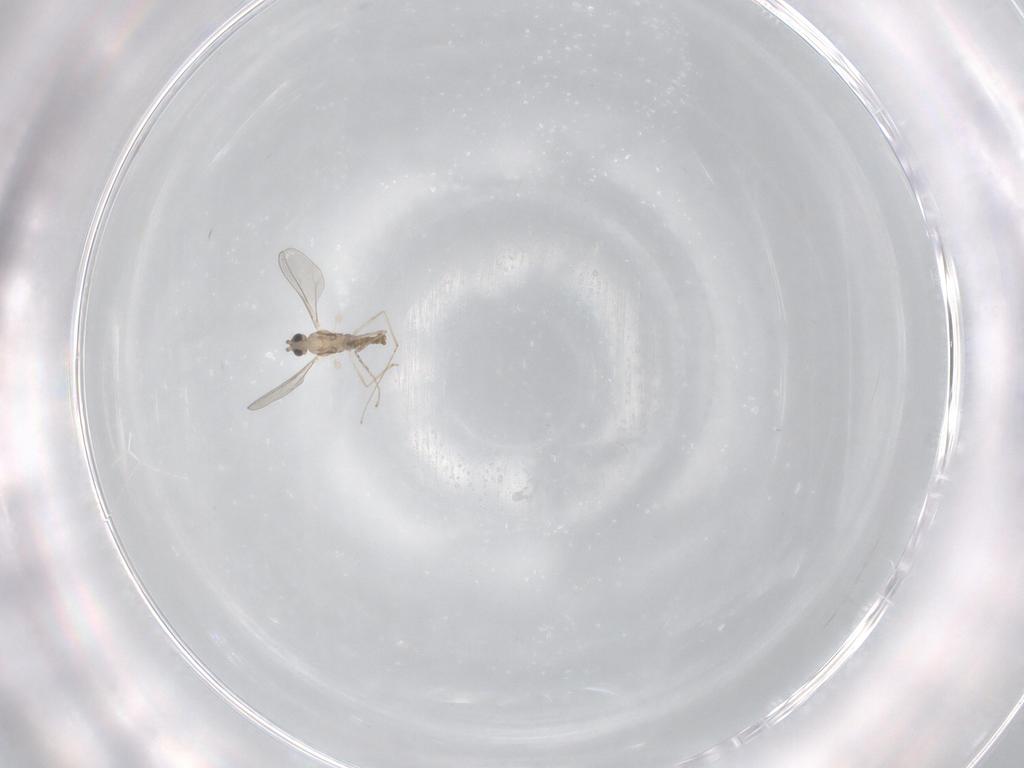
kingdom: Animalia
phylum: Arthropoda
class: Insecta
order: Diptera
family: Cecidomyiidae
